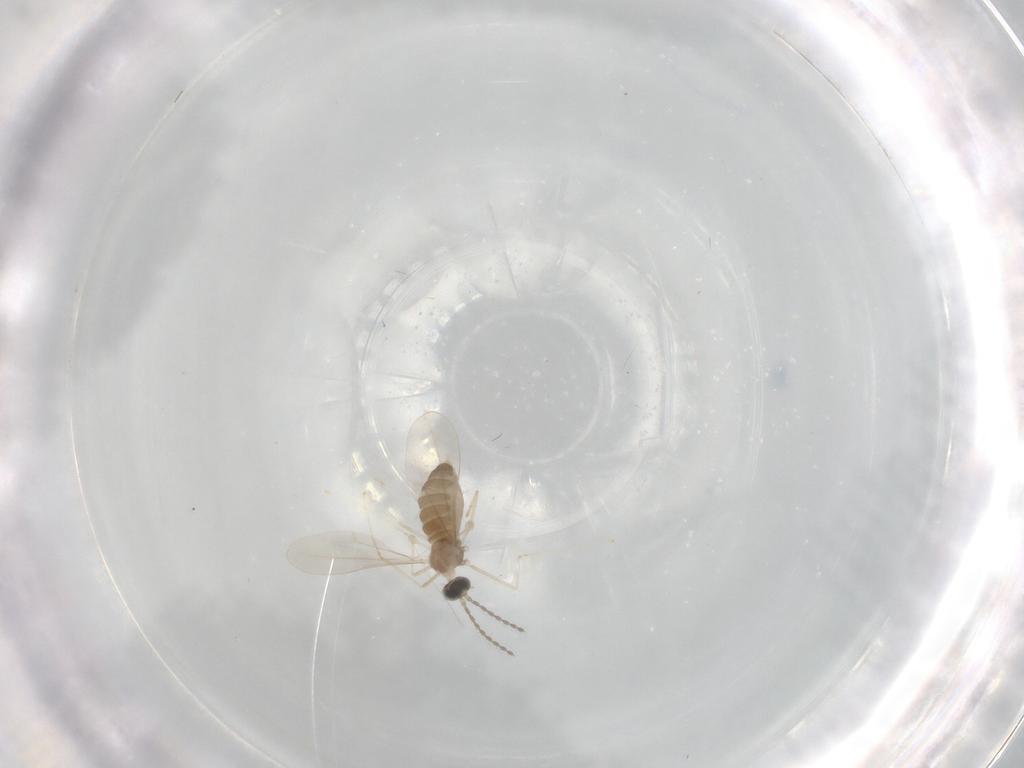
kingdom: Animalia
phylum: Arthropoda
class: Insecta
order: Diptera
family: Cecidomyiidae
